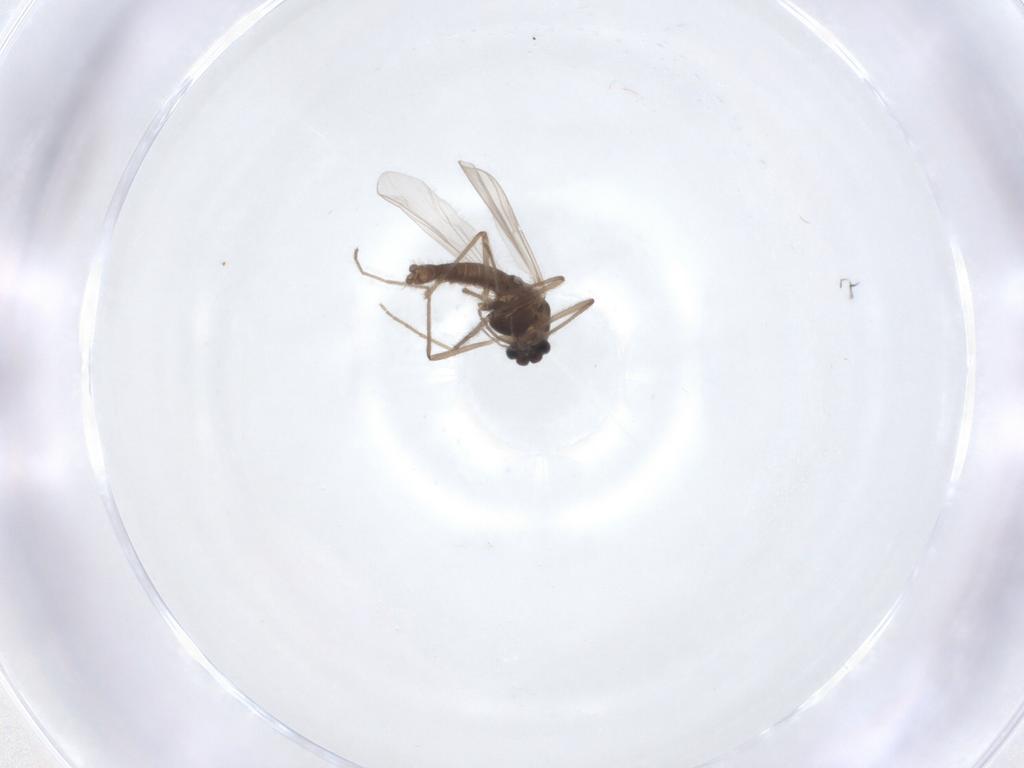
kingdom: Animalia
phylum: Arthropoda
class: Insecta
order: Diptera
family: Chironomidae
